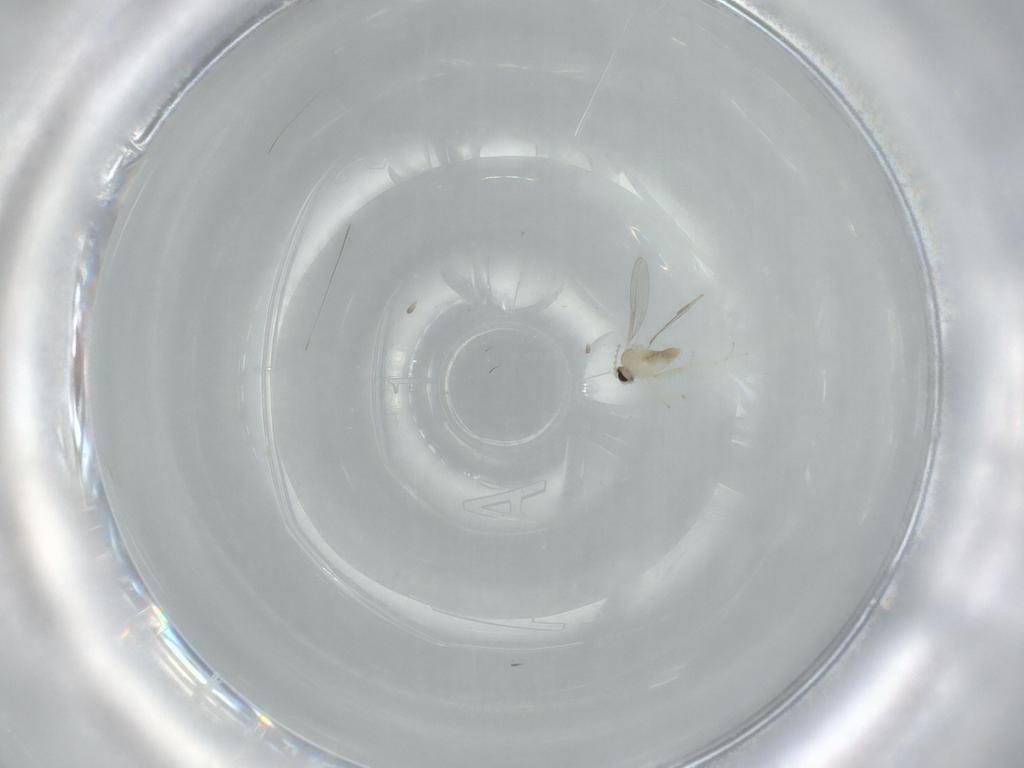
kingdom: Animalia
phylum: Arthropoda
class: Insecta
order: Diptera
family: Cecidomyiidae
